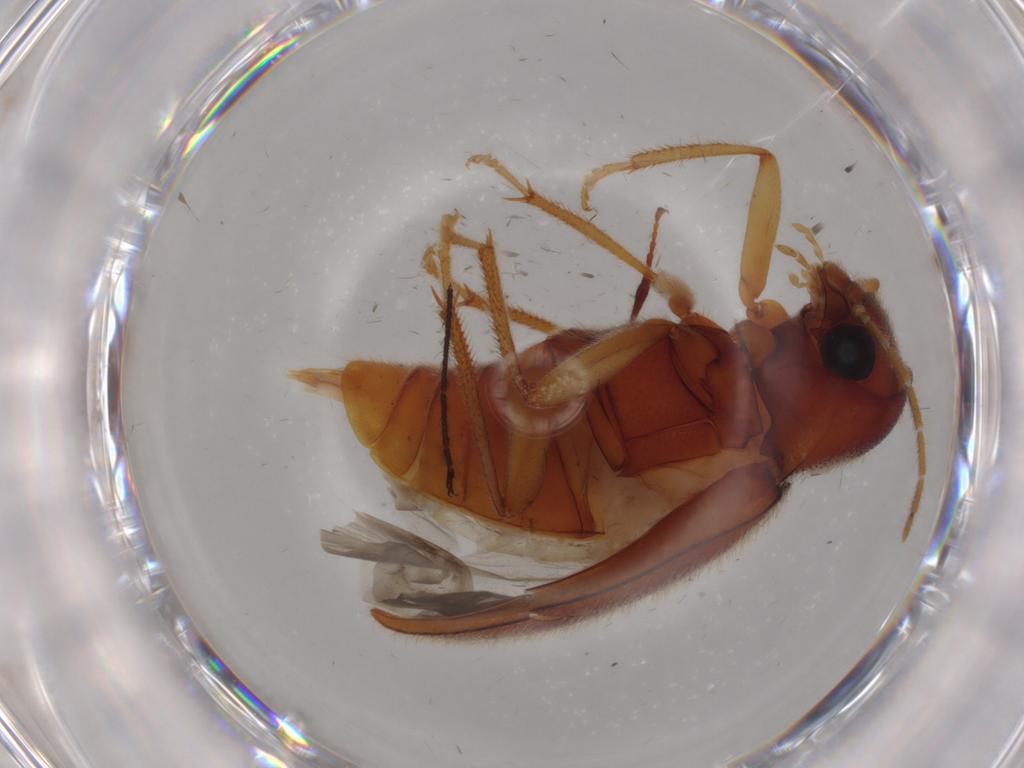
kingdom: Animalia
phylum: Arthropoda
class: Insecta
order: Coleoptera
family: Ptilodactylidae
